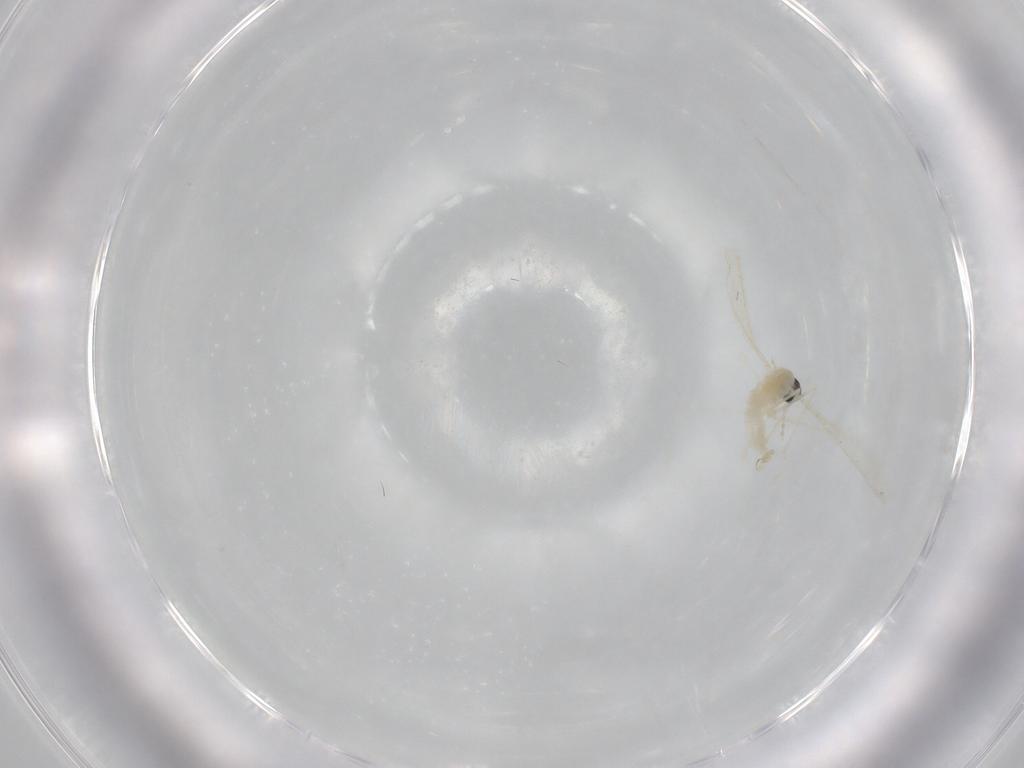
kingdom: Animalia
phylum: Arthropoda
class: Insecta
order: Diptera
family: Cecidomyiidae
